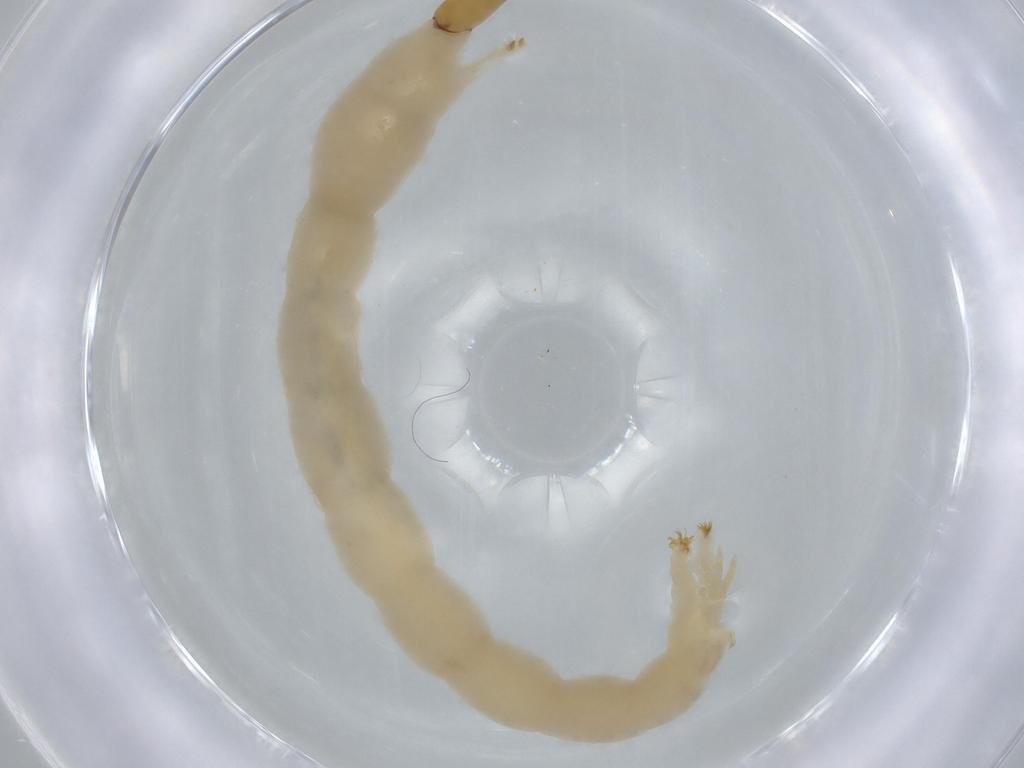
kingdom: Animalia
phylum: Arthropoda
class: Insecta
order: Diptera
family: Chironomidae
